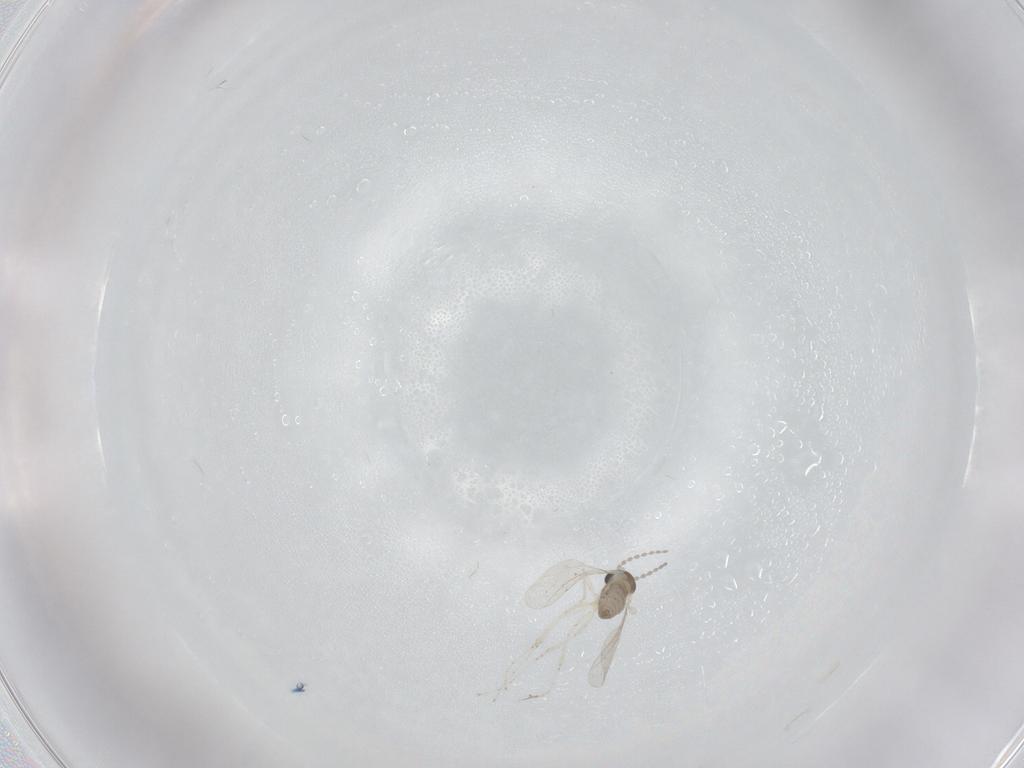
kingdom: Animalia
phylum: Arthropoda
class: Insecta
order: Diptera
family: Cecidomyiidae
